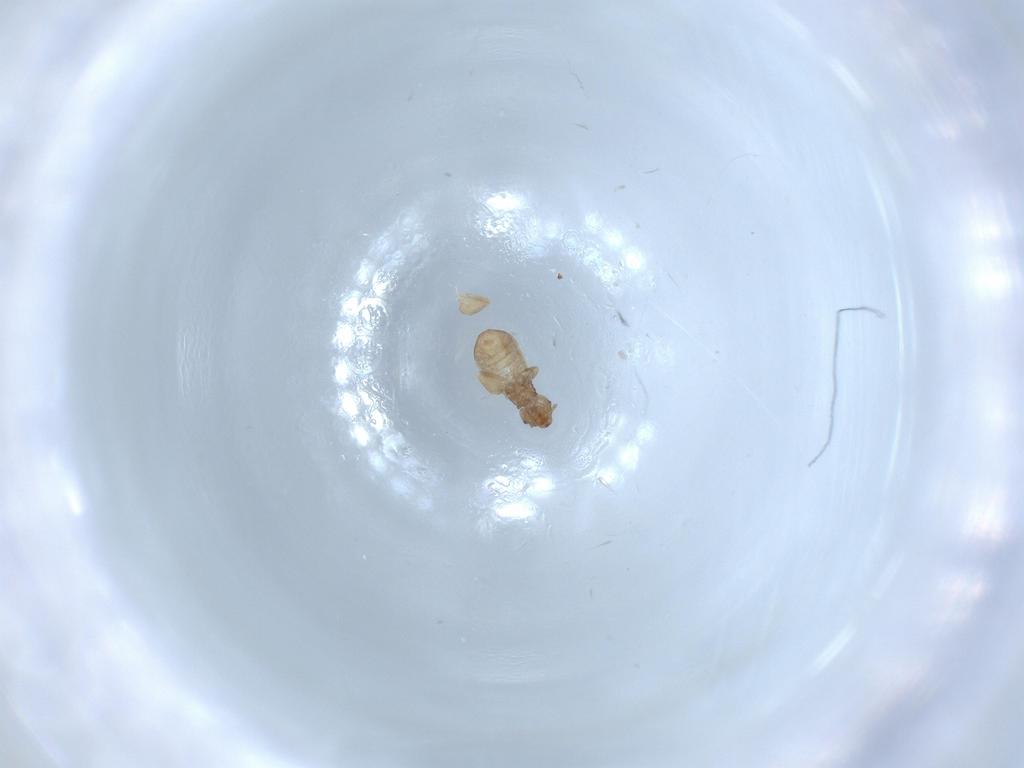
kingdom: Animalia
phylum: Arthropoda
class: Insecta
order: Psocodea
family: Liposcelididae
